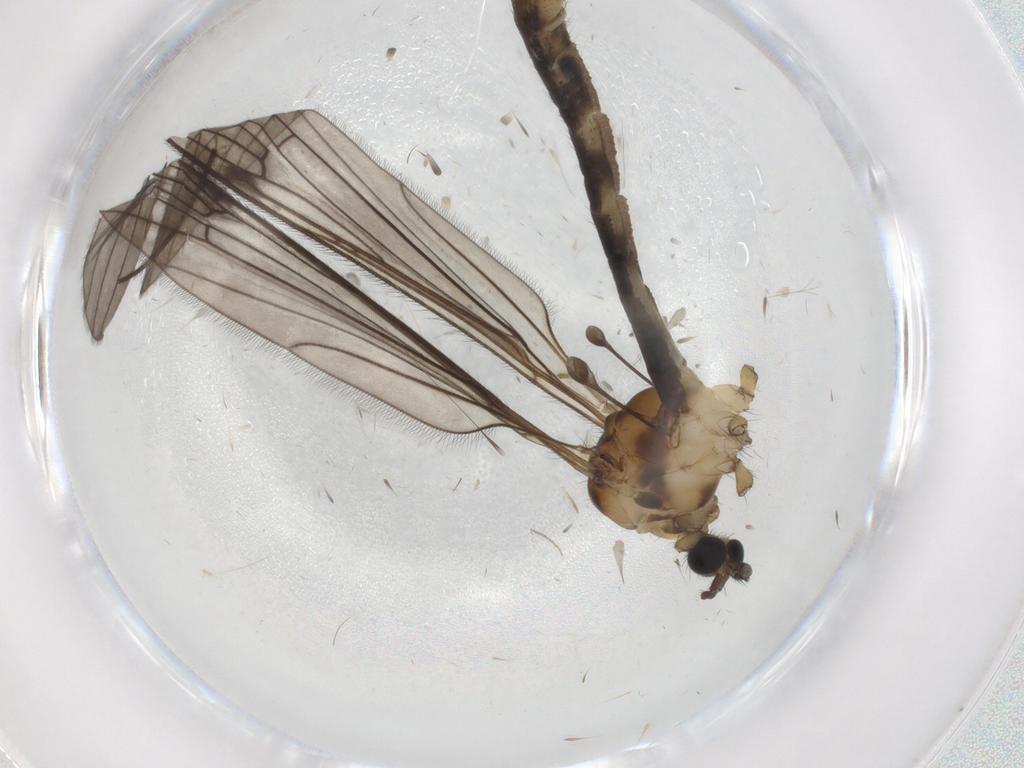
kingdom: Animalia
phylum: Arthropoda
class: Insecta
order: Diptera
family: Limoniidae
